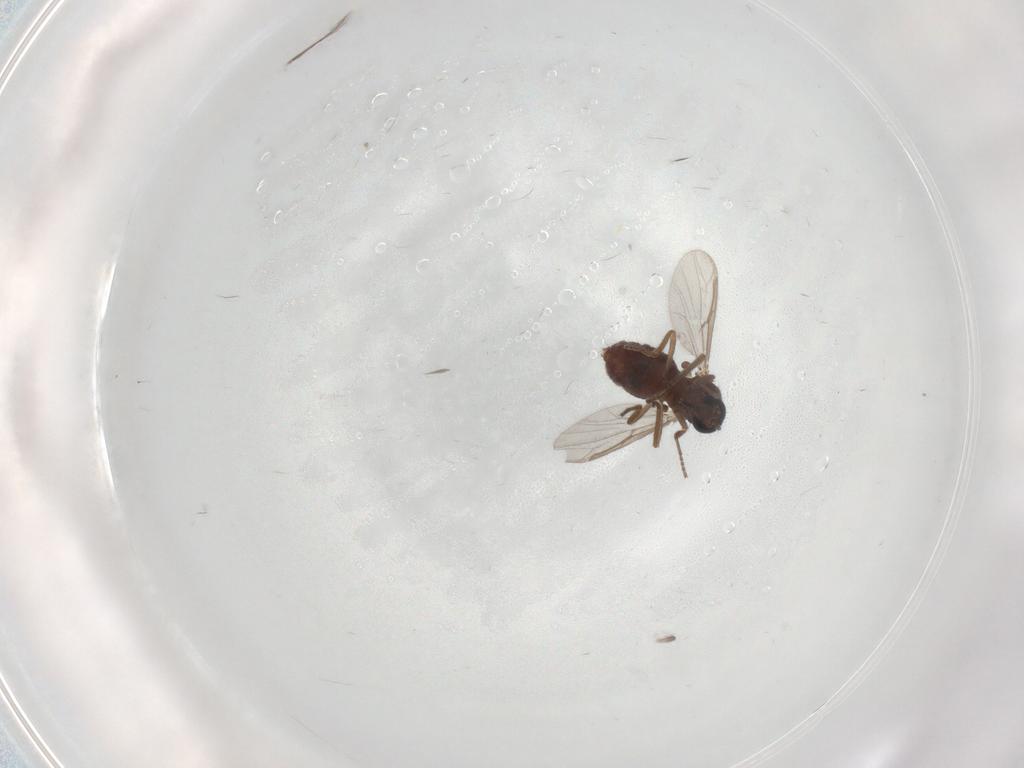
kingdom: Animalia
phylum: Arthropoda
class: Insecta
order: Diptera
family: Ceratopogonidae
